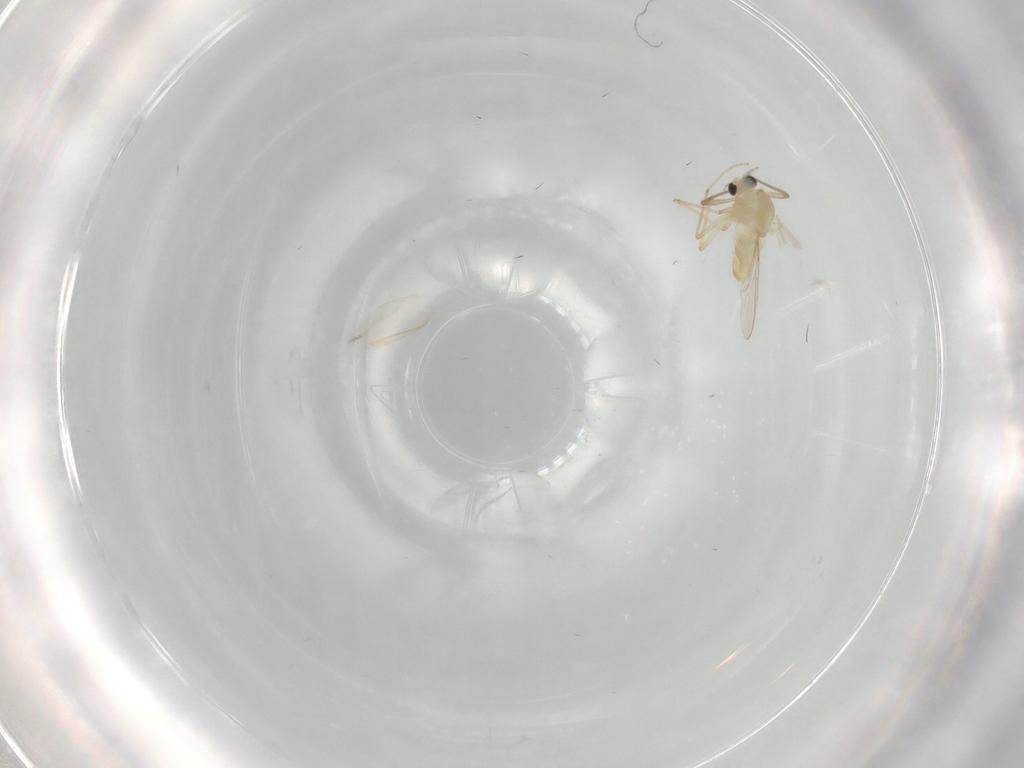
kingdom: Animalia
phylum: Arthropoda
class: Insecta
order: Diptera
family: Chironomidae
